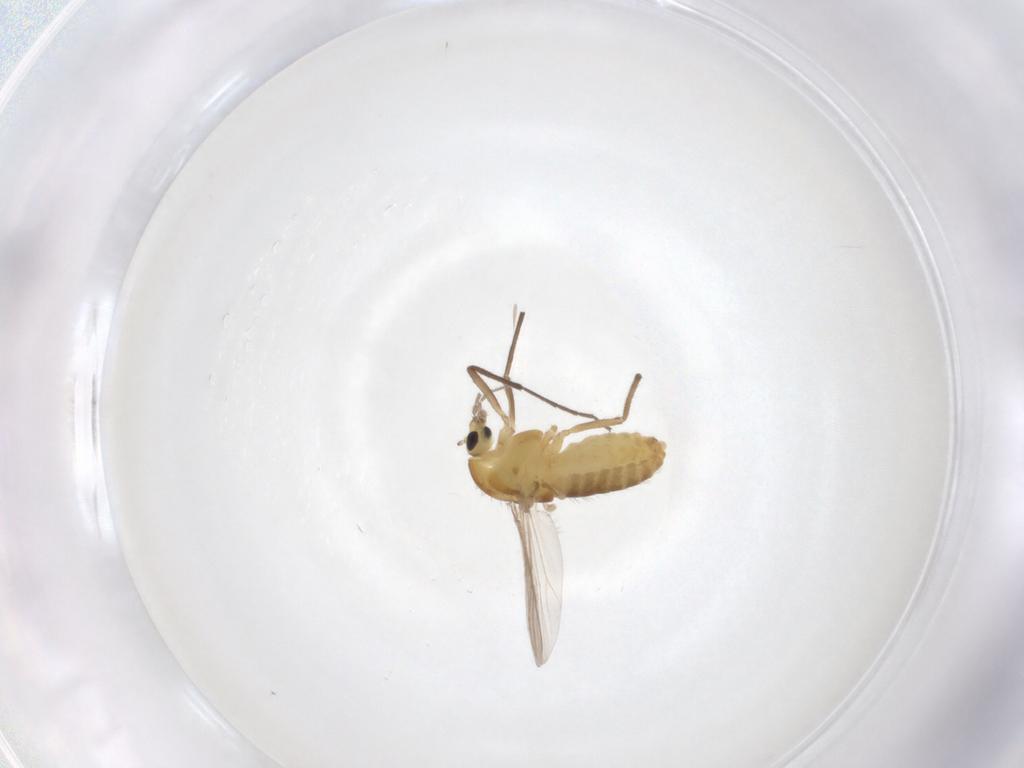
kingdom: Animalia
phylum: Arthropoda
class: Insecta
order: Diptera
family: Chironomidae
